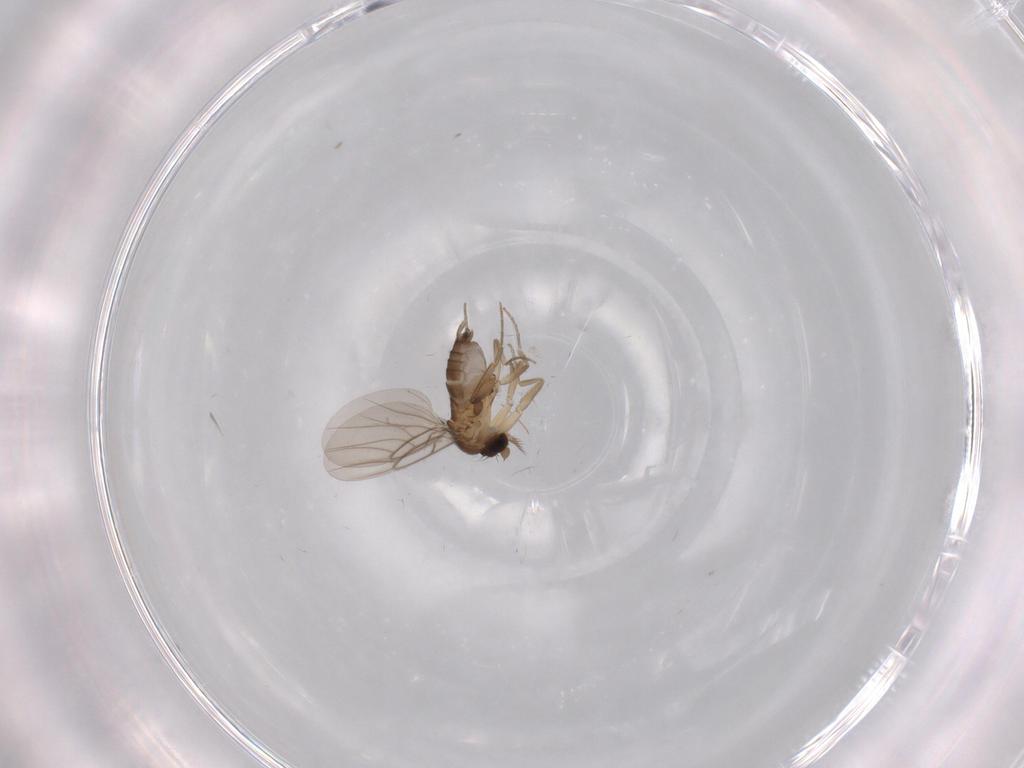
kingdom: Animalia
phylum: Arthropoda
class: Insecta
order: Diptera
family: Phoridae
